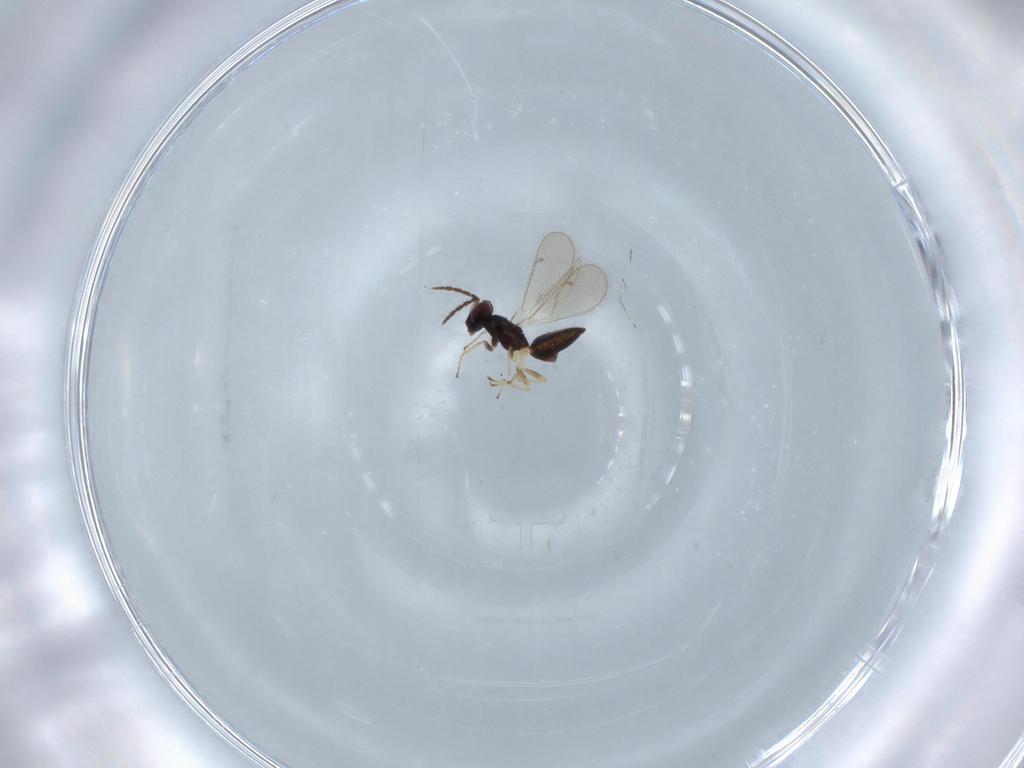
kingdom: Animalia
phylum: Arthropoda
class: Insecta
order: Hymenoptera
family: Eulophidae
